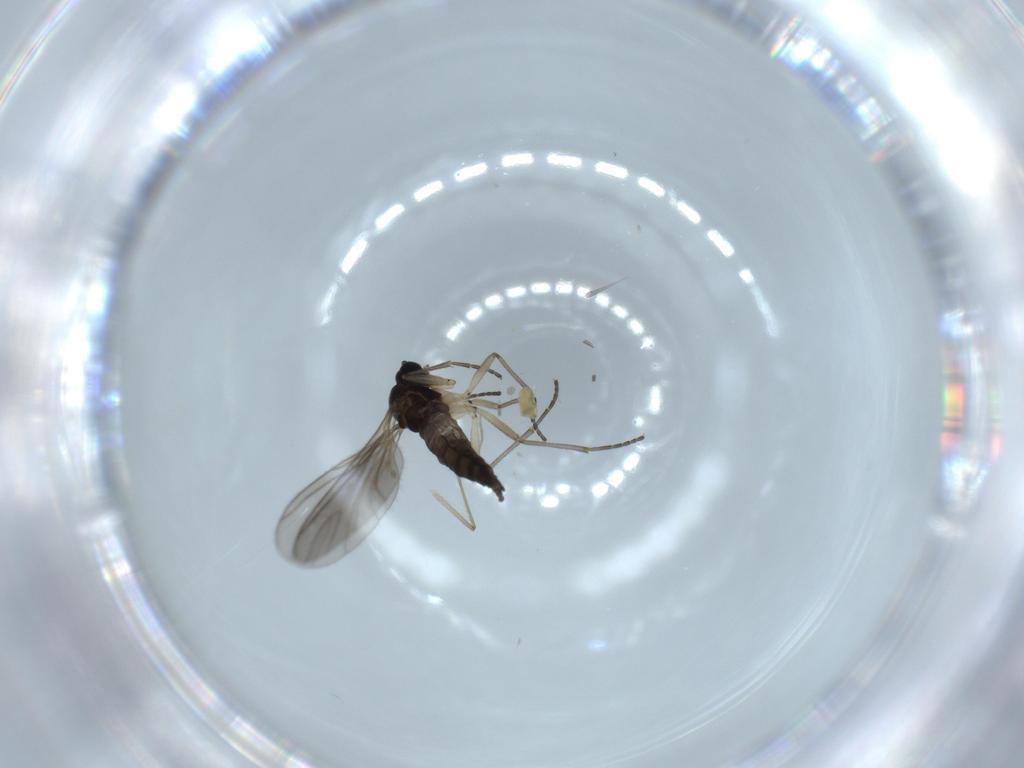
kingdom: Animalia
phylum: Arthropoda
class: Insecta
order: Diptera
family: Sciaridae
